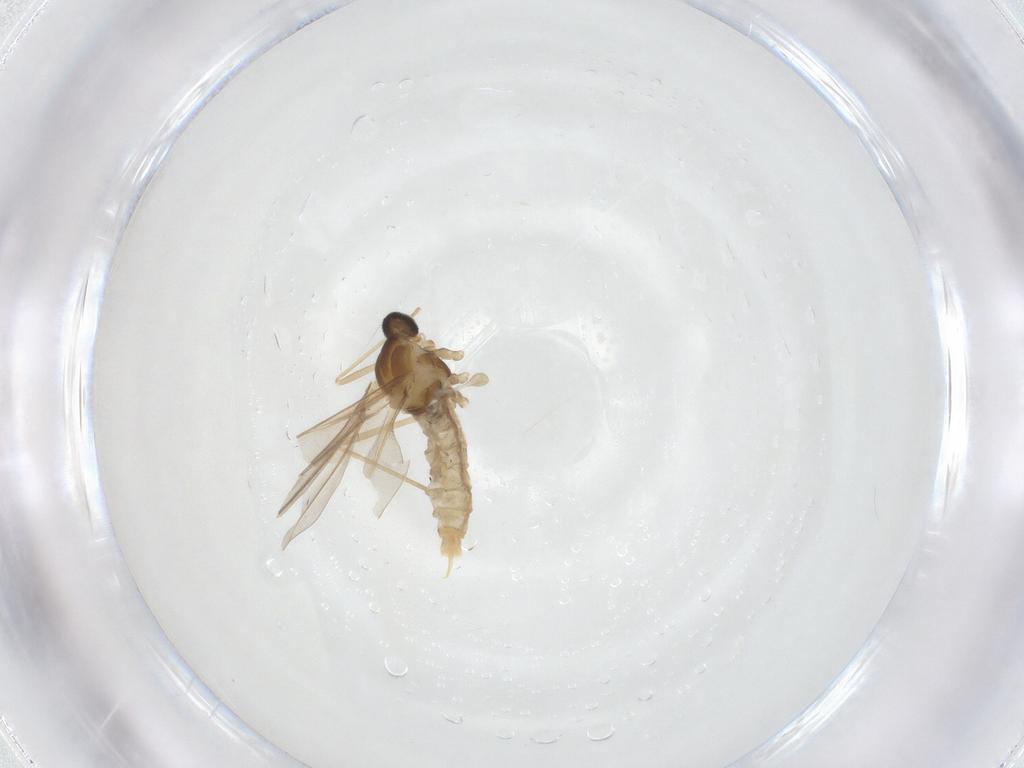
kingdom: Animalia
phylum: Arthropoda
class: Insecta
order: Diptera
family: Cecidomyiidae
